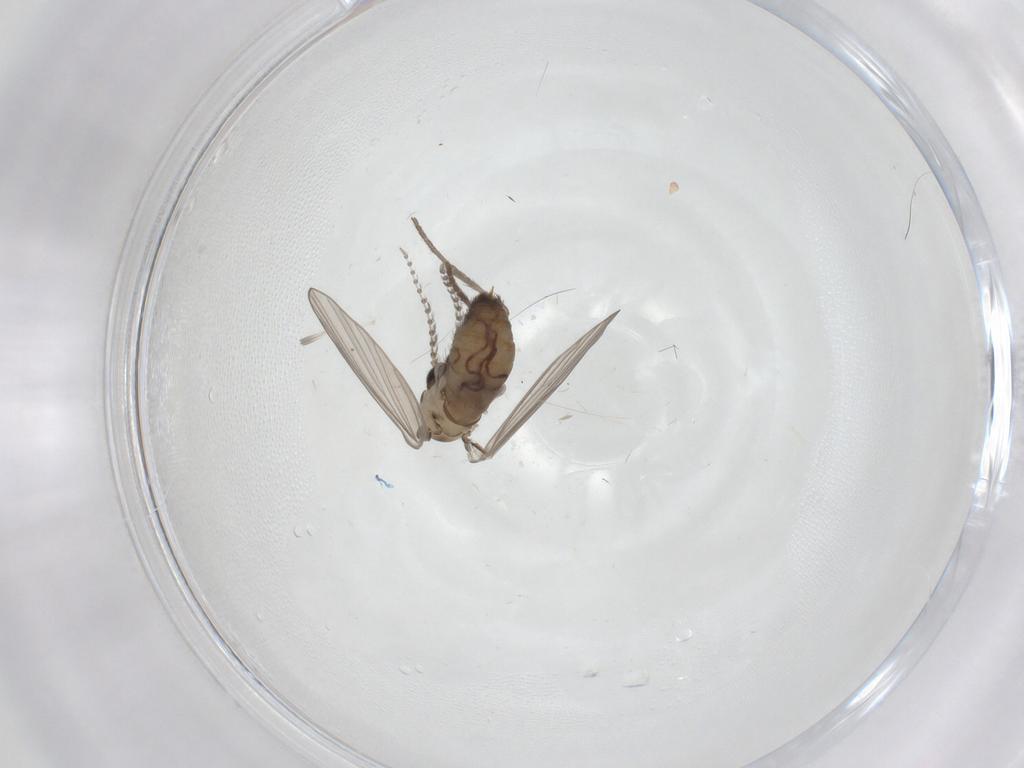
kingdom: Animalia
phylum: Arthropoda
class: Insecta
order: Diptera
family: Psychodidae
